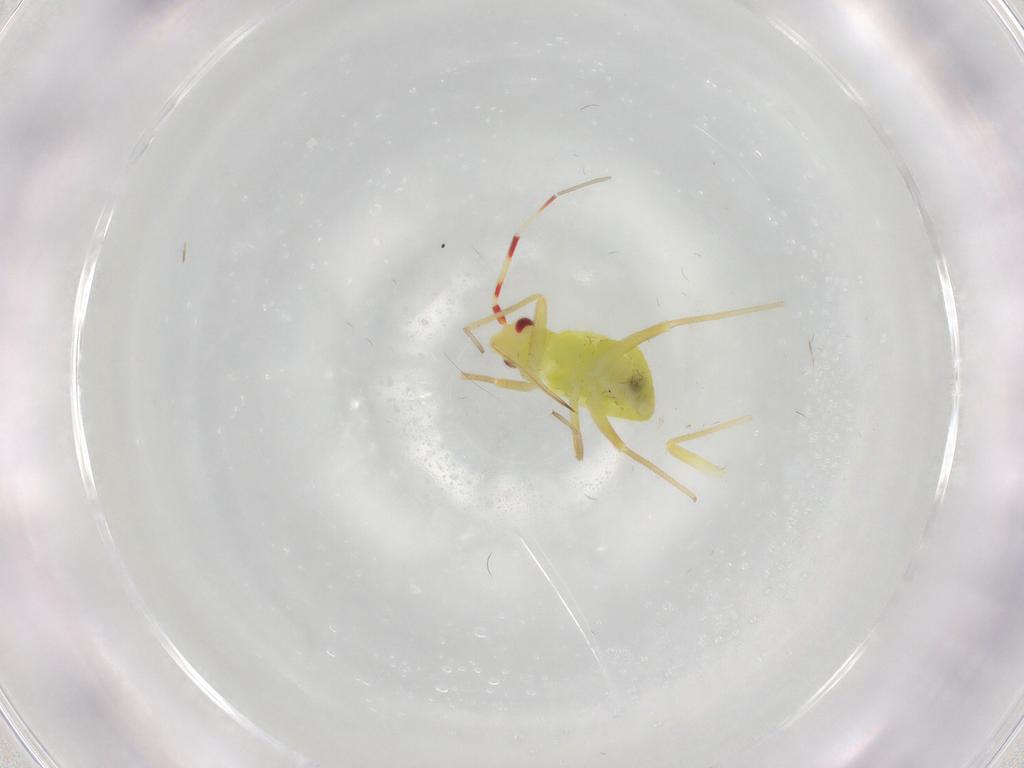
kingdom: Animalia
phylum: Arthropoda
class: Insecta
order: Hemiptera
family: Miridae
